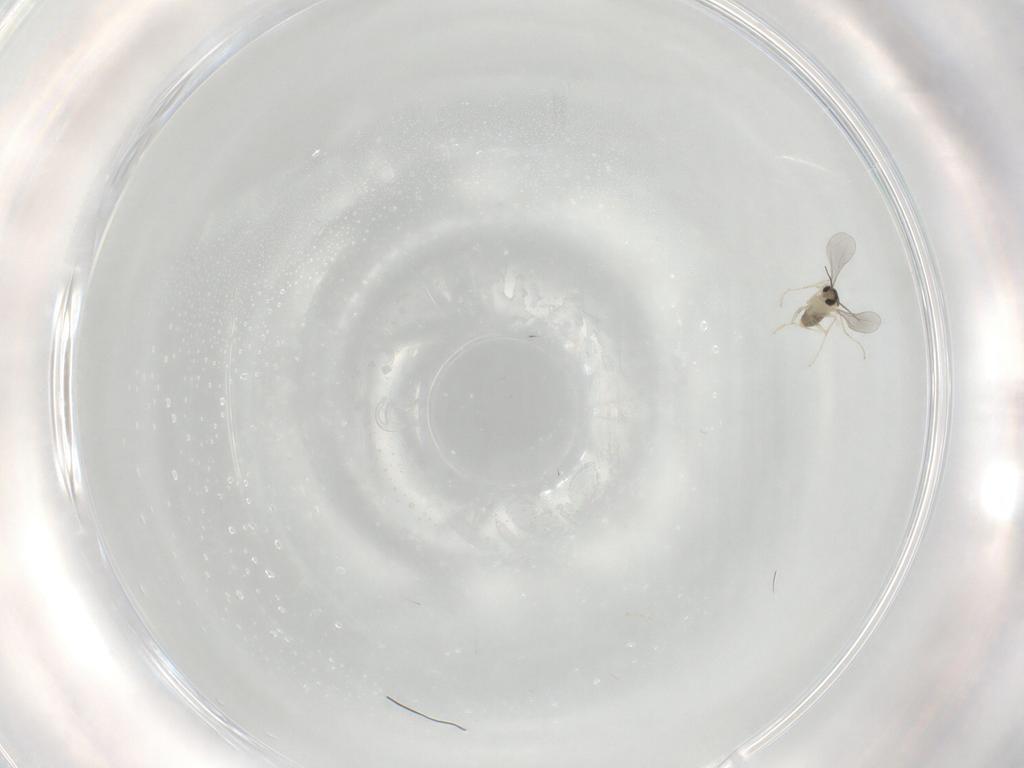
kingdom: Animalia
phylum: Arthropoda
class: Insecta
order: Diptera
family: Cecidomyiidae
